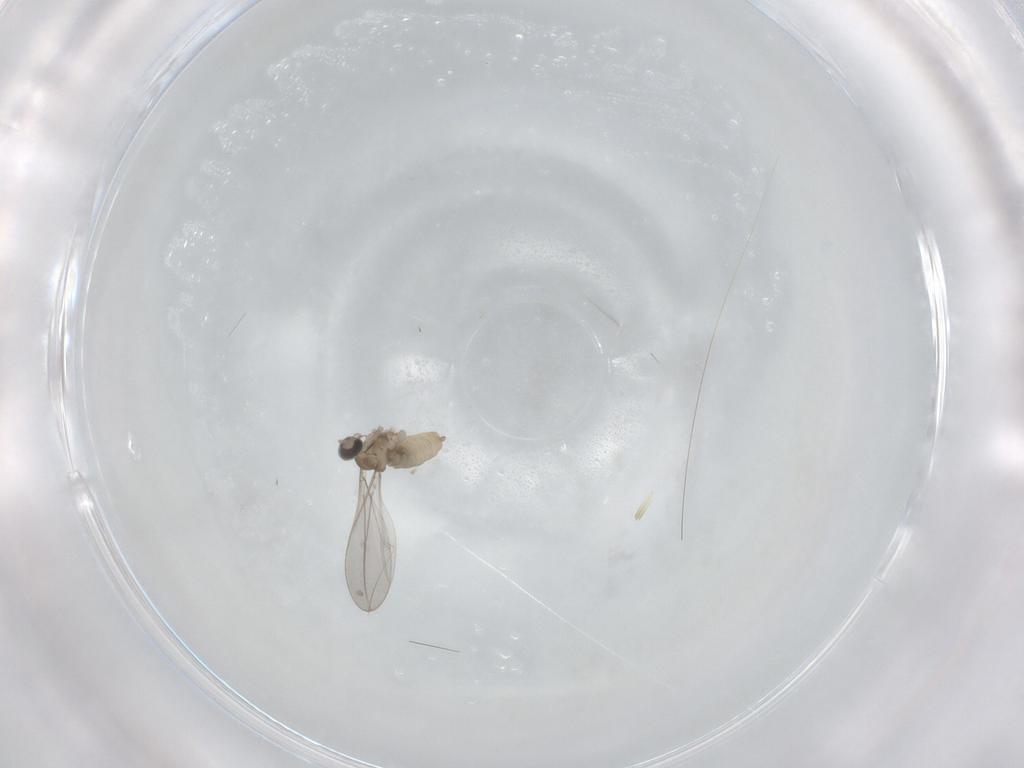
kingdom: Animalia
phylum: Arthropoda
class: Insecta
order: Diptera
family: Cecidomyiidae
